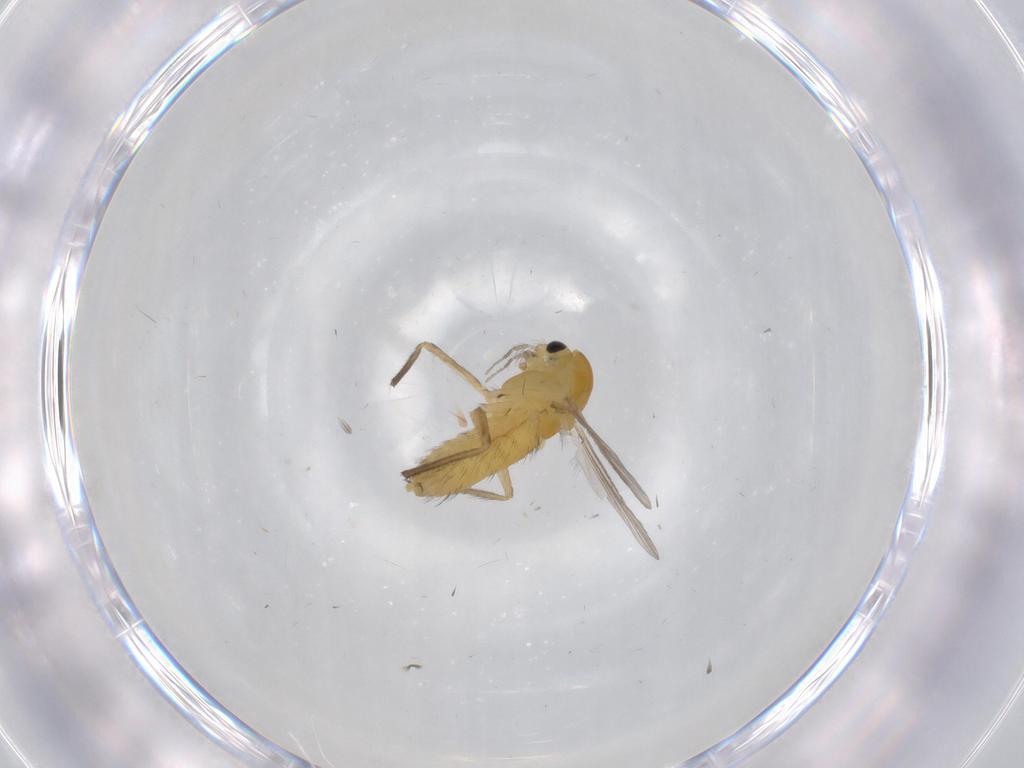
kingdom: Animalia
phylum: Arthropoda
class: Insecta
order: Diptera
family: Chironomidae
